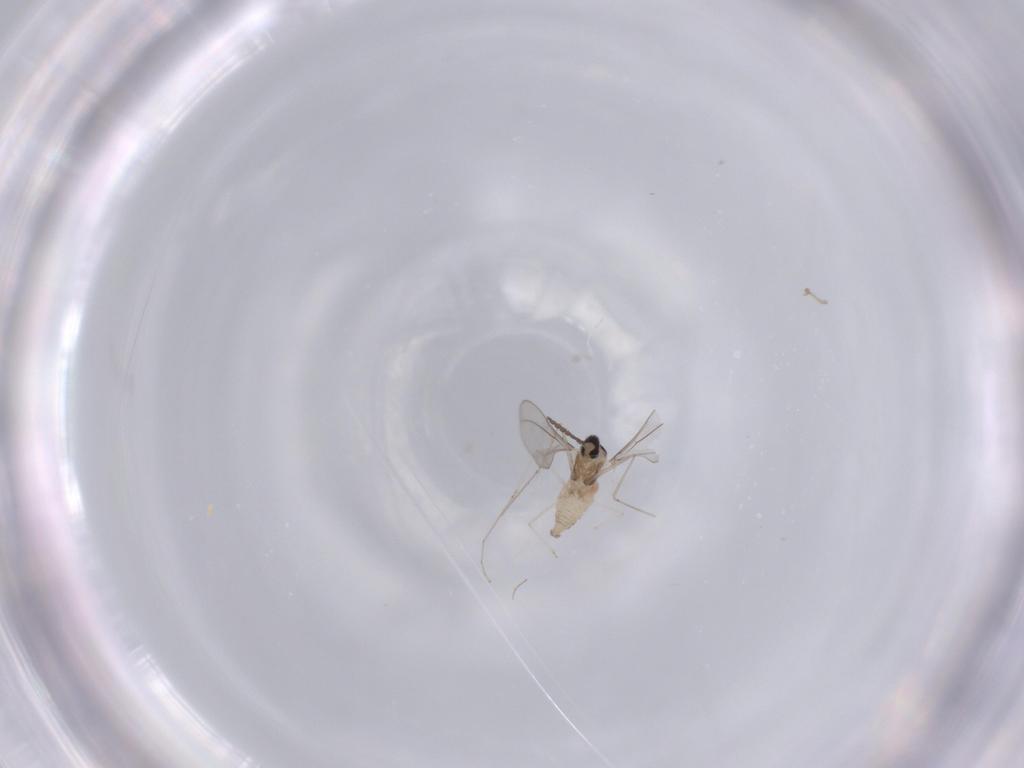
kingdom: Animalia
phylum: Arthropoda
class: Insecta
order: Diptera
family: Cecidomyiidae
